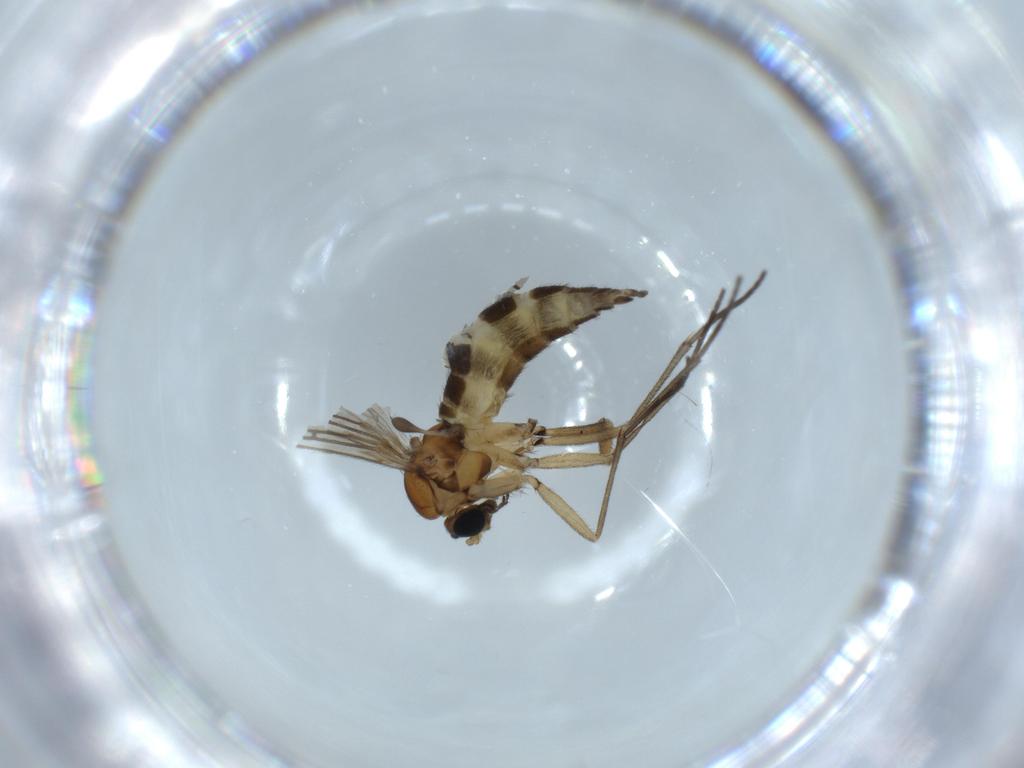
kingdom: Animalia
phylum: Arthropoda
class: Insecta
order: Diptera
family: Sciaridae
